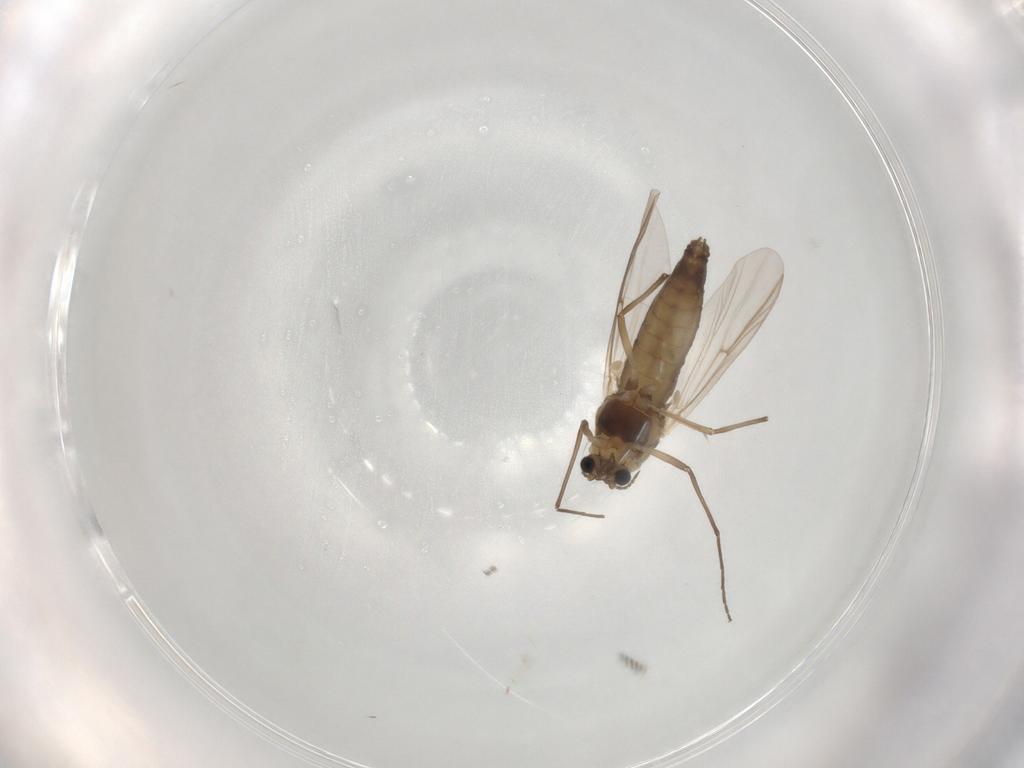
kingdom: Animalia
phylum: Arthropoda
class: Insecta
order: Diptera
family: Chironomidae
